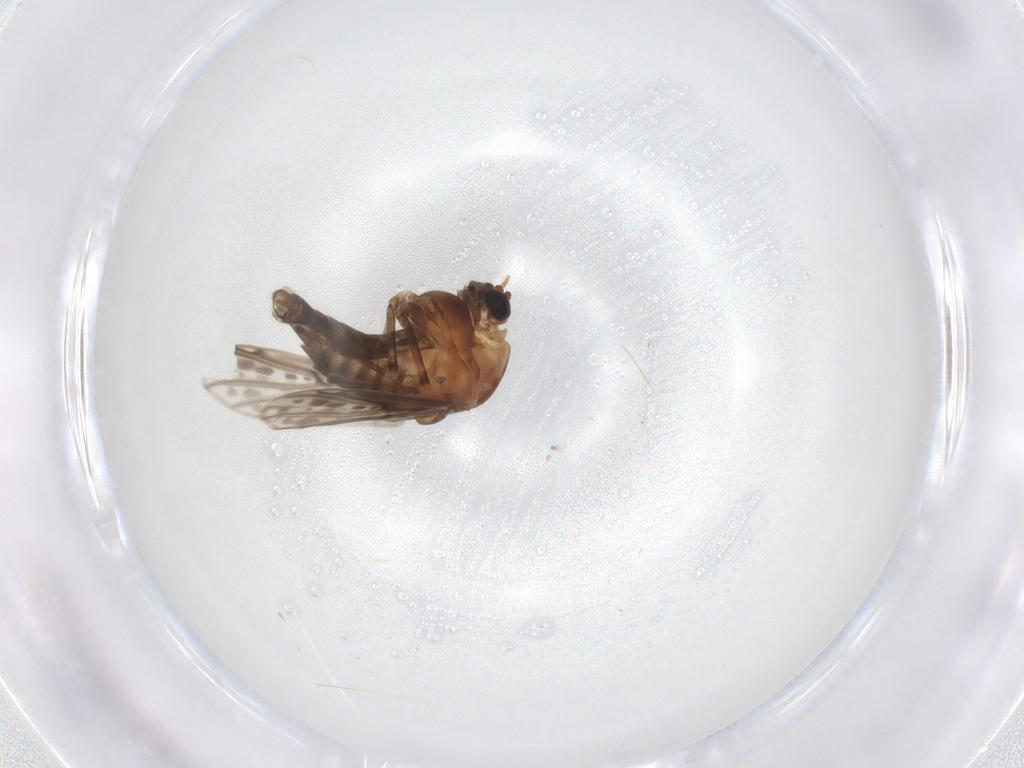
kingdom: Animalia
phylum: Arthropoda
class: Insecta
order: Diptera
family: Chironomidae
